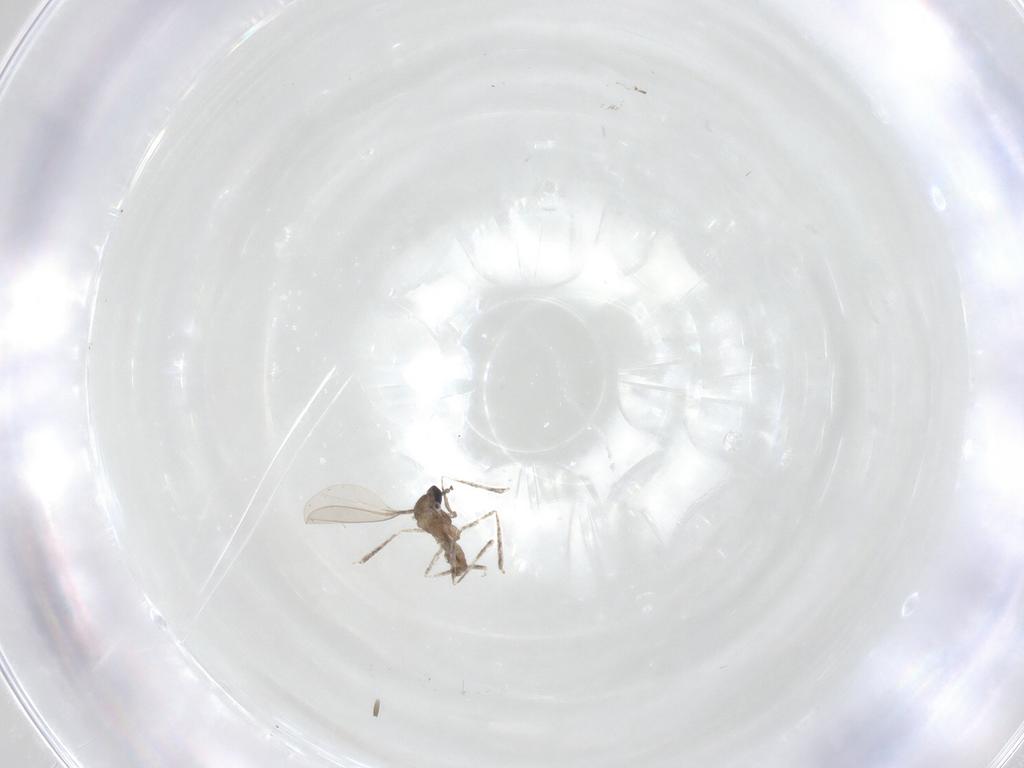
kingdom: Animalia
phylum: Arthropoda
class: Insecta
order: Diptera
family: Cecidomyiidae
